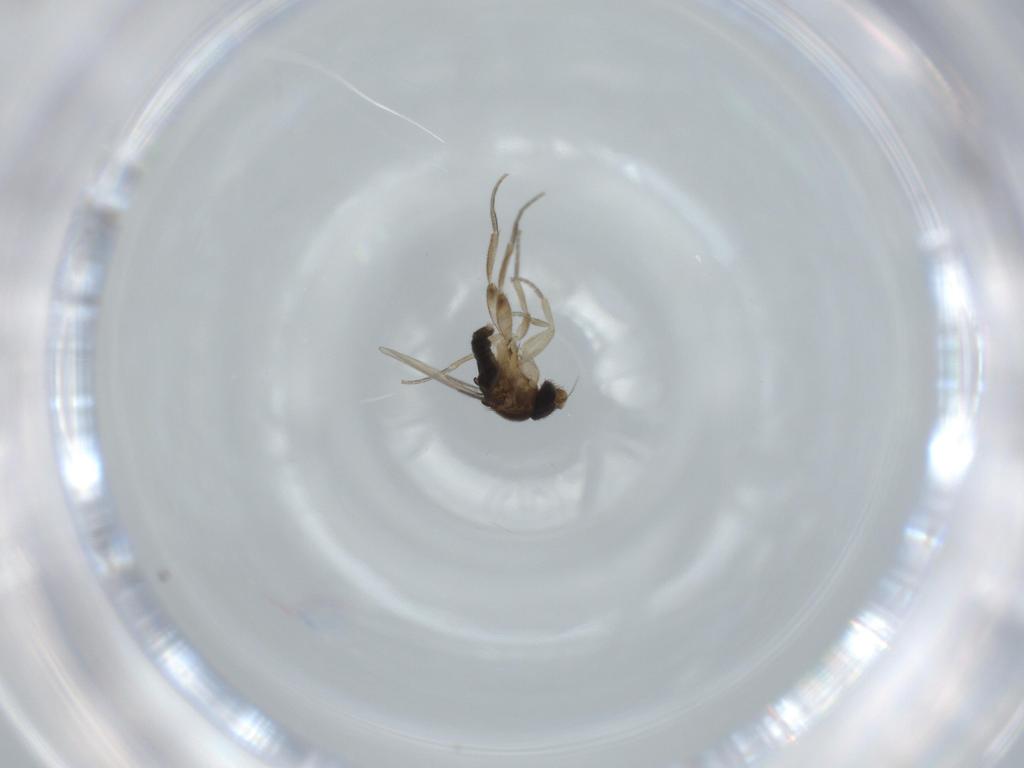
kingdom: Animalia
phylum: Arthropoda
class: Insecta
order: Diptera
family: Phoridae
